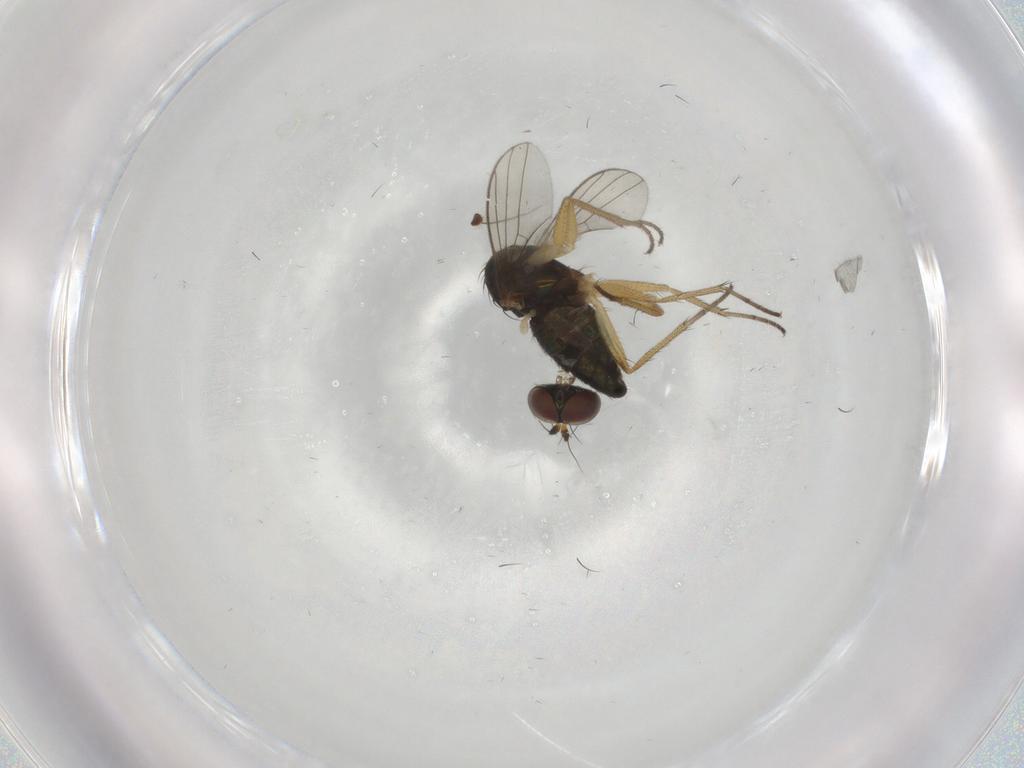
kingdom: Animalia
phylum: Arthropoda
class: Insecta
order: Diptera
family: Dolichopodidae
